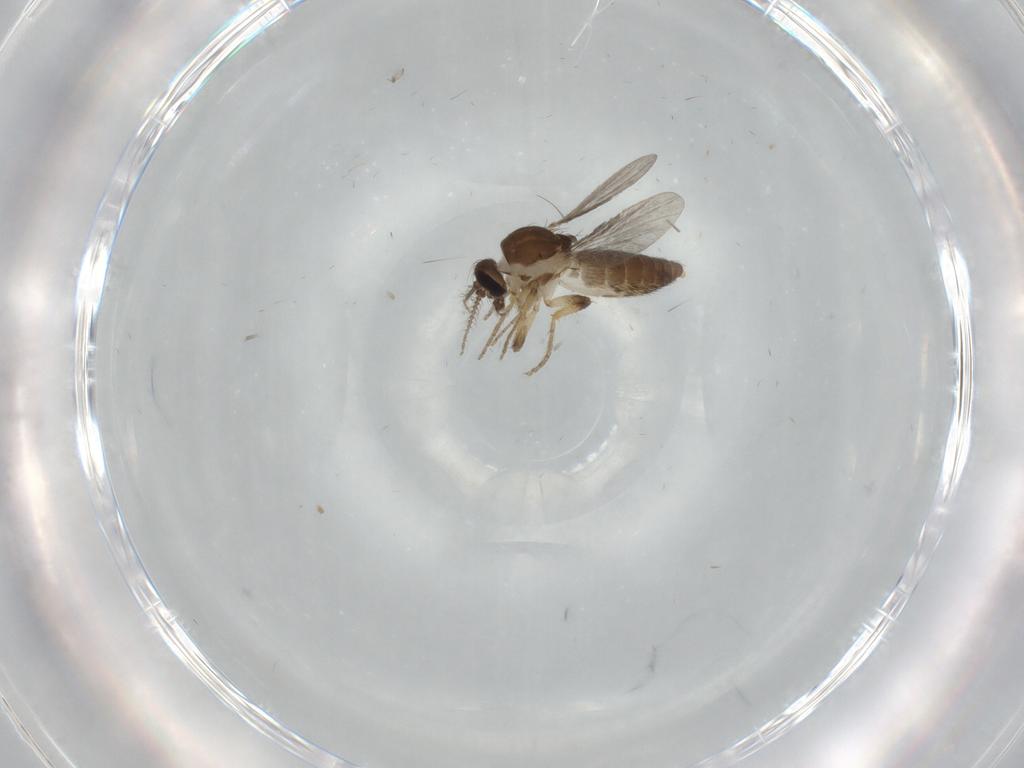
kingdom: Animalia
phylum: Arthropoda
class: Insecta
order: Diptera
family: Ceratopogonidae
